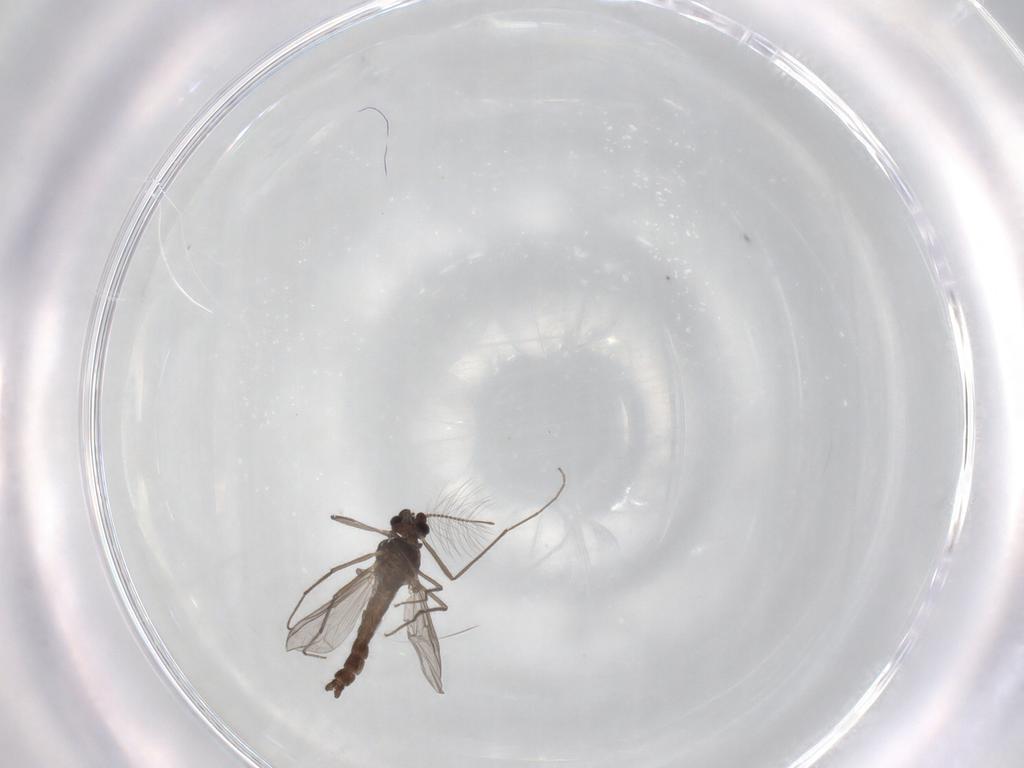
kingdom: Animalia
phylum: Arthropoda
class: Insecta
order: Diptera
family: Chironomidae
